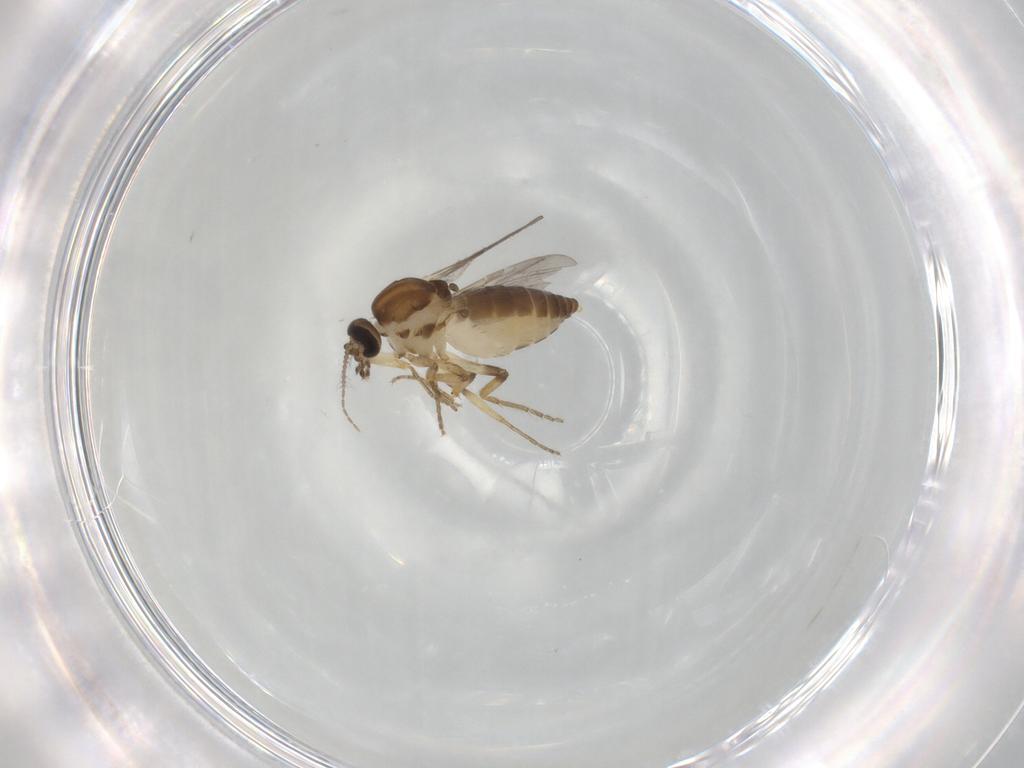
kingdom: Animalia
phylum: Arthropoda
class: Insecta
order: Diptera
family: Ceratopogonidae
